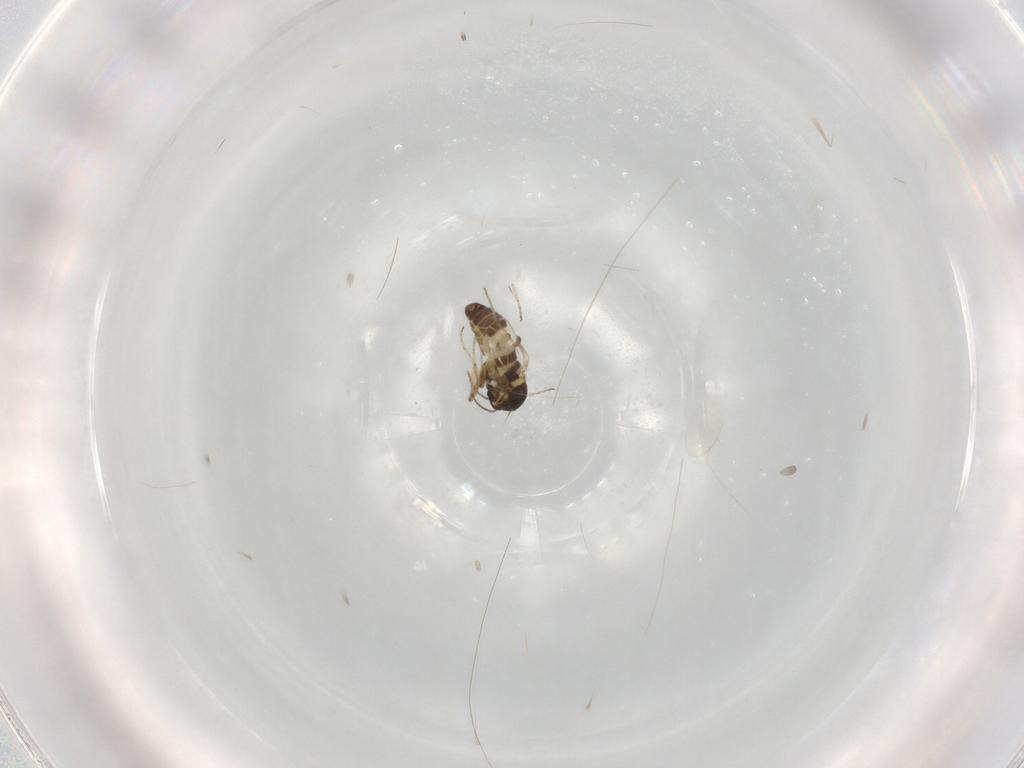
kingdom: Animalia
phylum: Arthropoda
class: Insecta
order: Diptera
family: Ceratopogonidae
